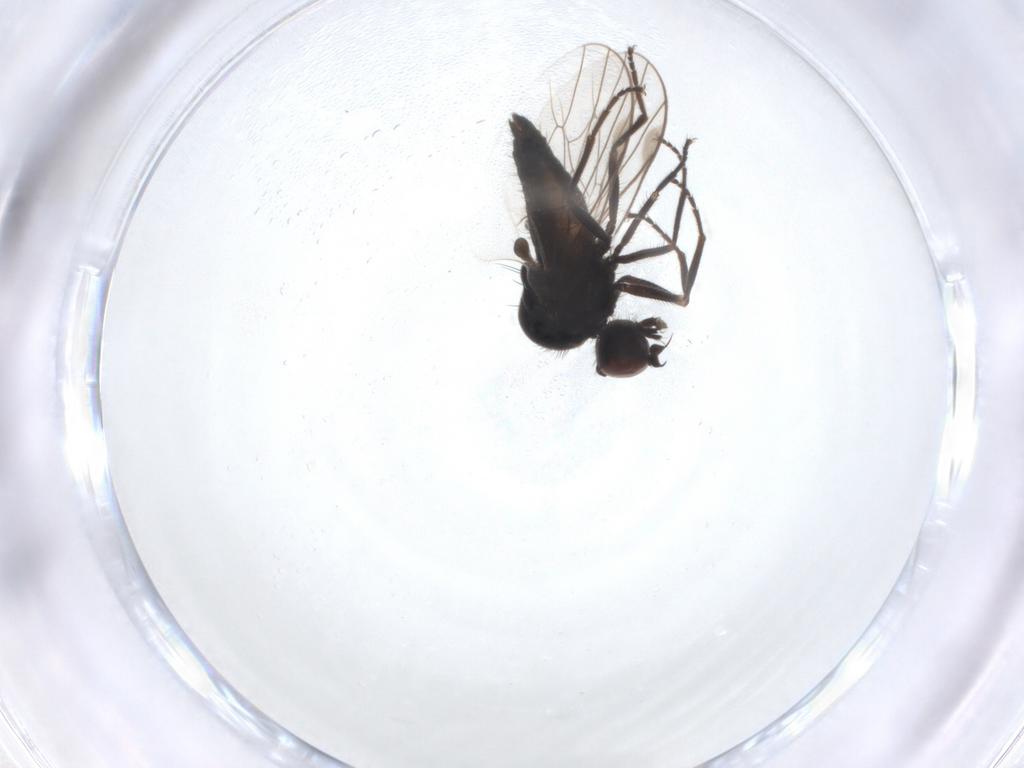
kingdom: Animalia
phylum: Arthropoda
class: Insecta
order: Diptera
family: Hybotidae
